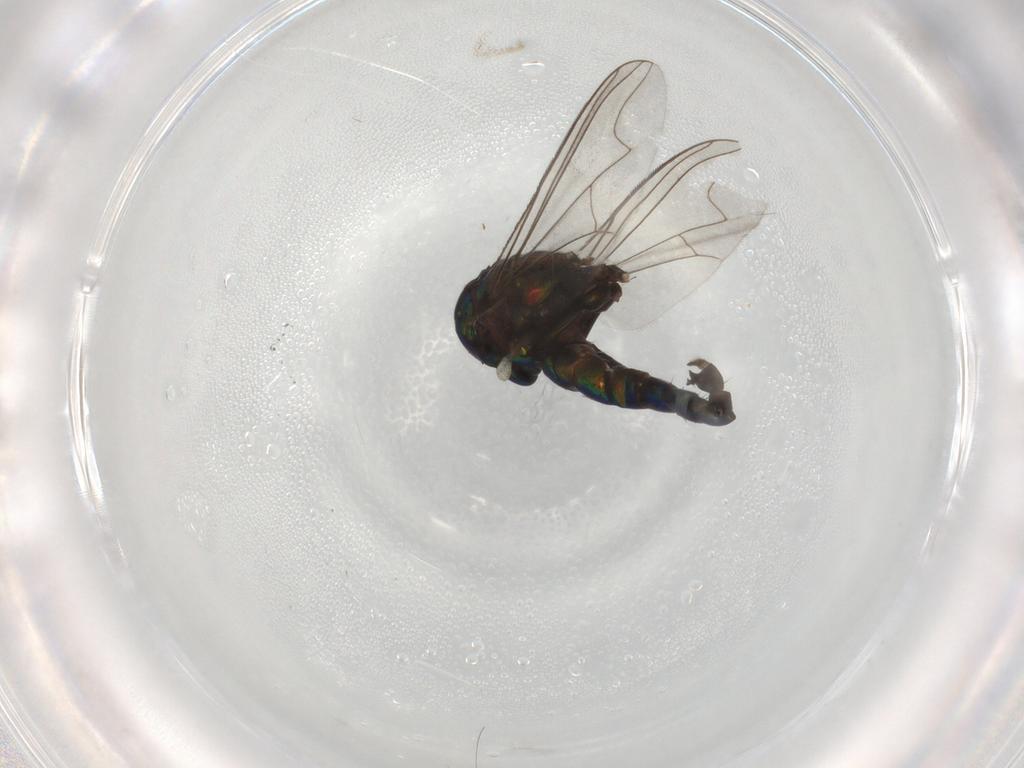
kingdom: Animalia
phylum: Arthropoda
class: Insecta
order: Diptera
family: Dolichopodidae
